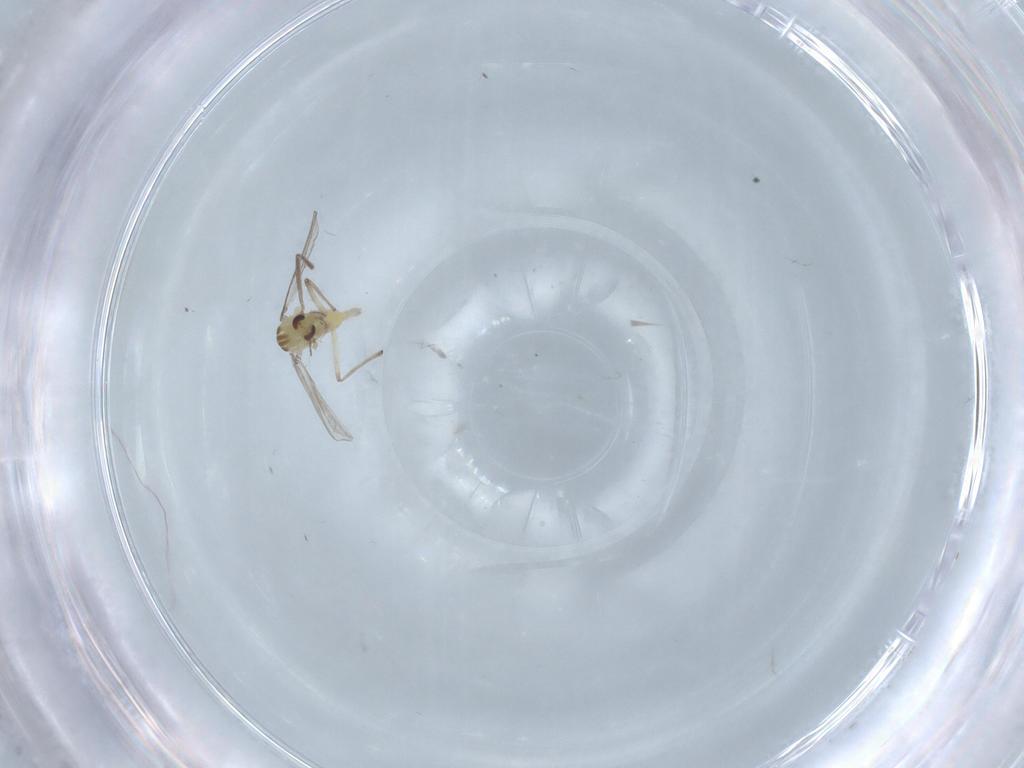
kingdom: Animalia
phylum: Arthropoda
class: Insecta
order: Diptera
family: Chironomidae
